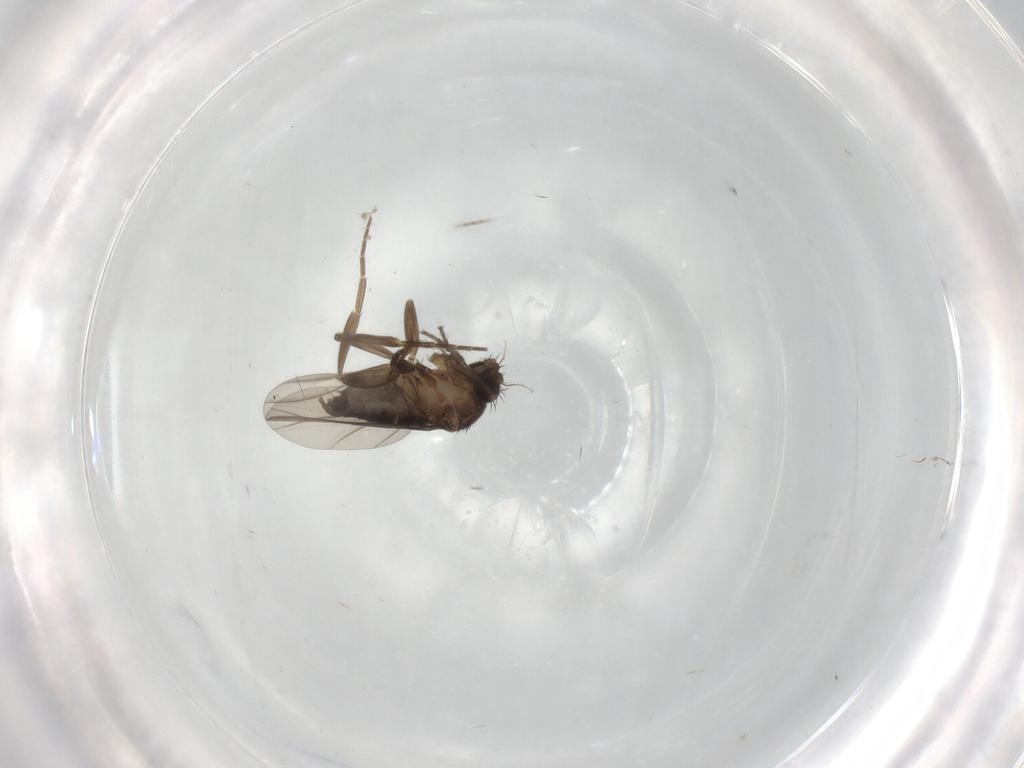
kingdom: Animalia
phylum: Arthropoda
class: Insecta
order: Diptera
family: Phoridae
